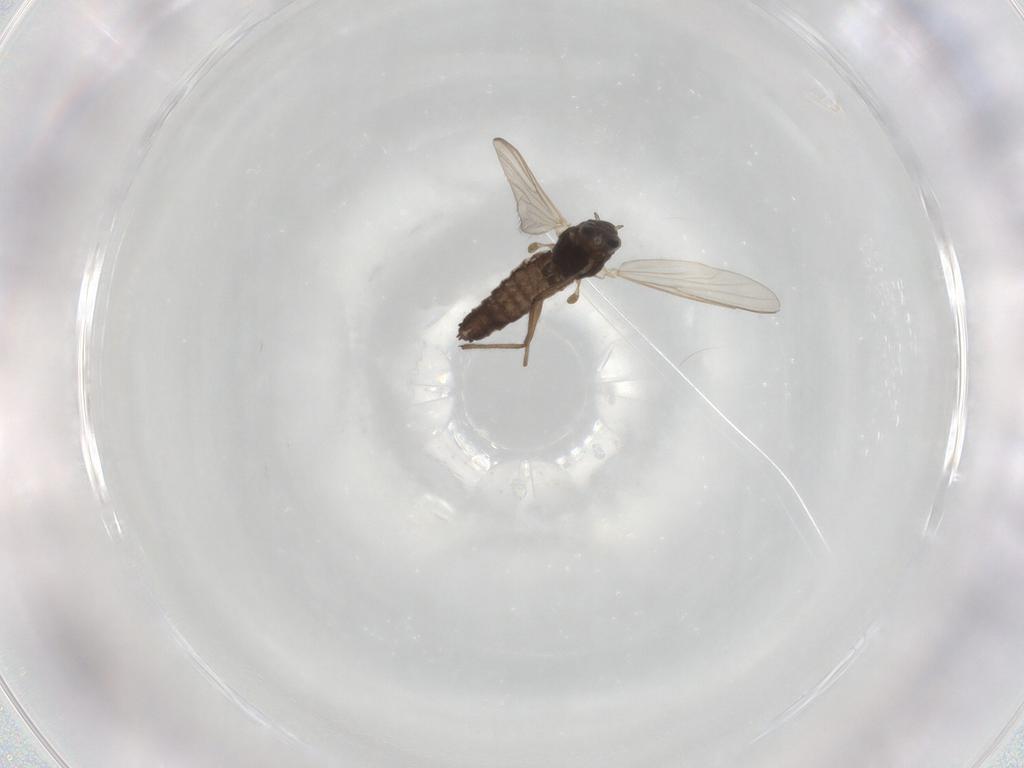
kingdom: Animalia
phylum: Arthropoda
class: Insecta
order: Diptera
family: Chironomidae
